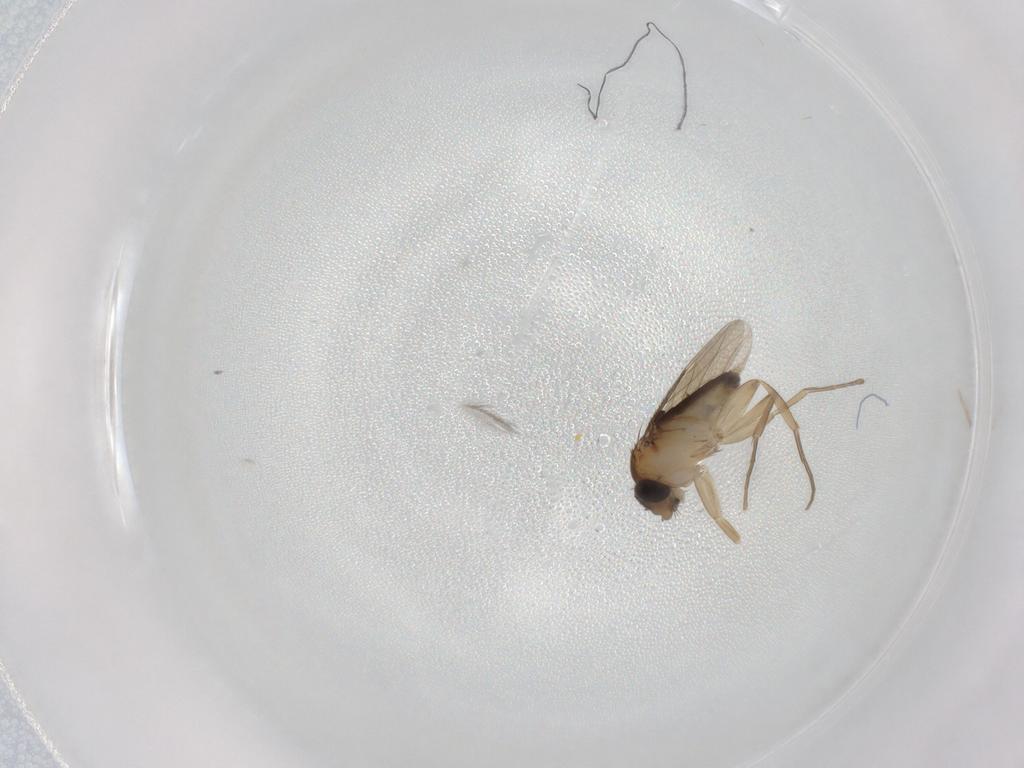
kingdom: Animalia
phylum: Arthropoda
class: Insecta
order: Diptera
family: Phoridae
